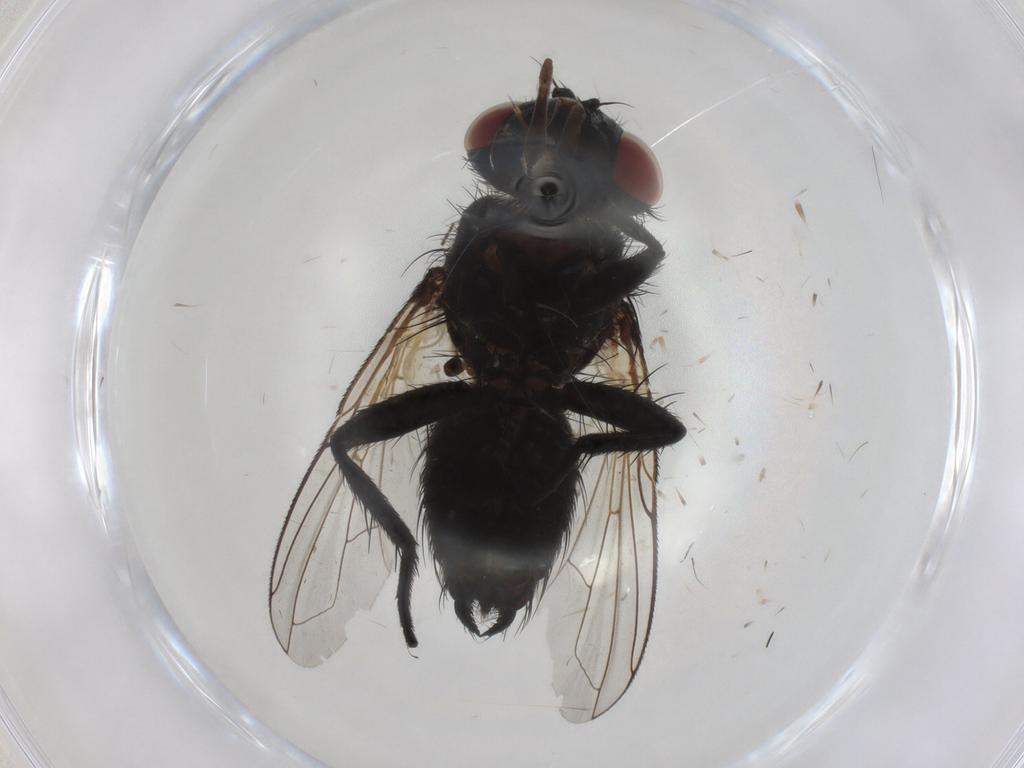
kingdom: Animalia
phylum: Arthropoda
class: Insecta
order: Diptera
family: Tachinidae
